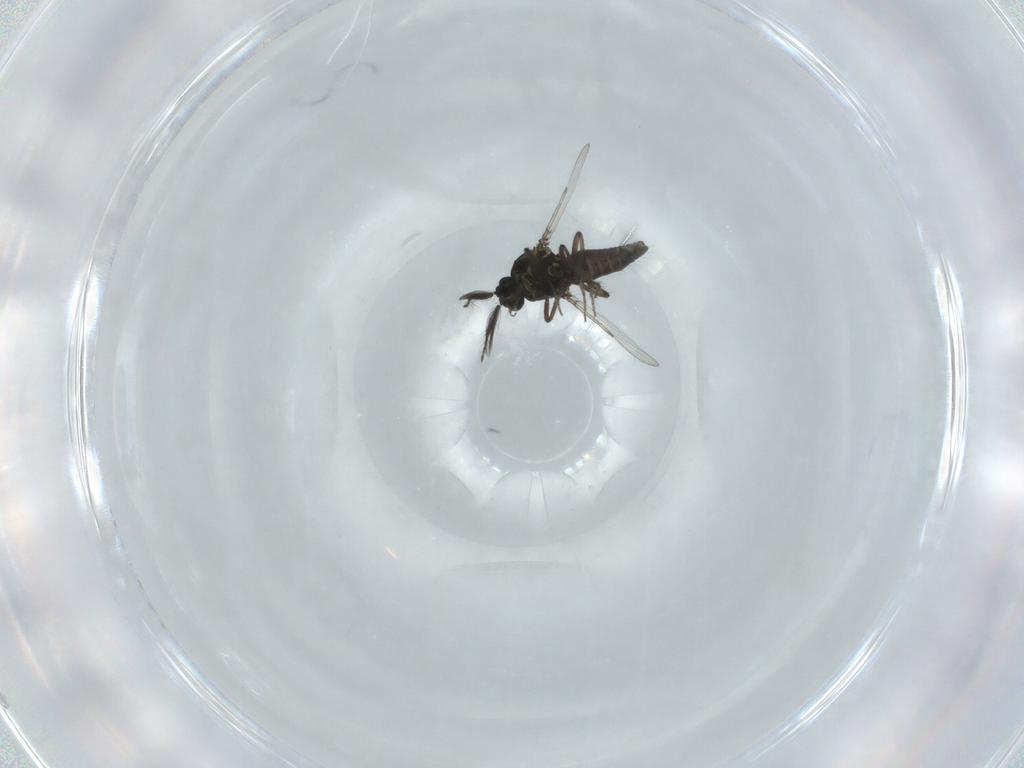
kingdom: Animalia
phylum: Arthropoda
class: Insecta
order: Diptera
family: Ceratopogonidae
